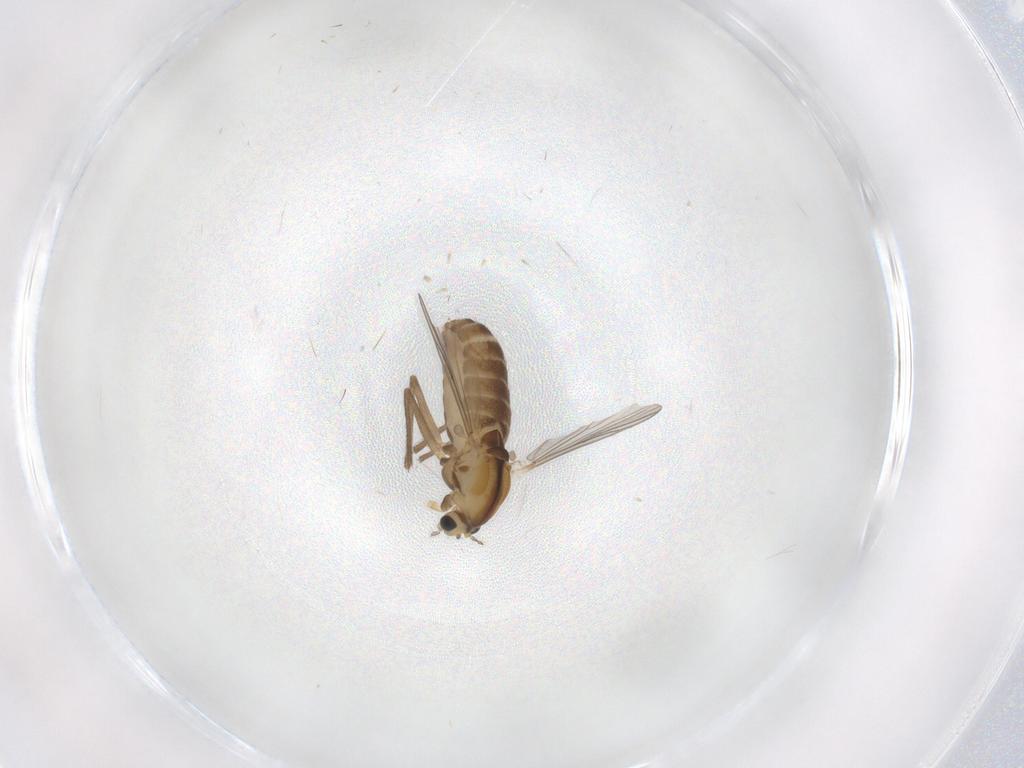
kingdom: Animalia
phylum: Arthropoda
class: Insecta
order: Diptera
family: Chironomidae
